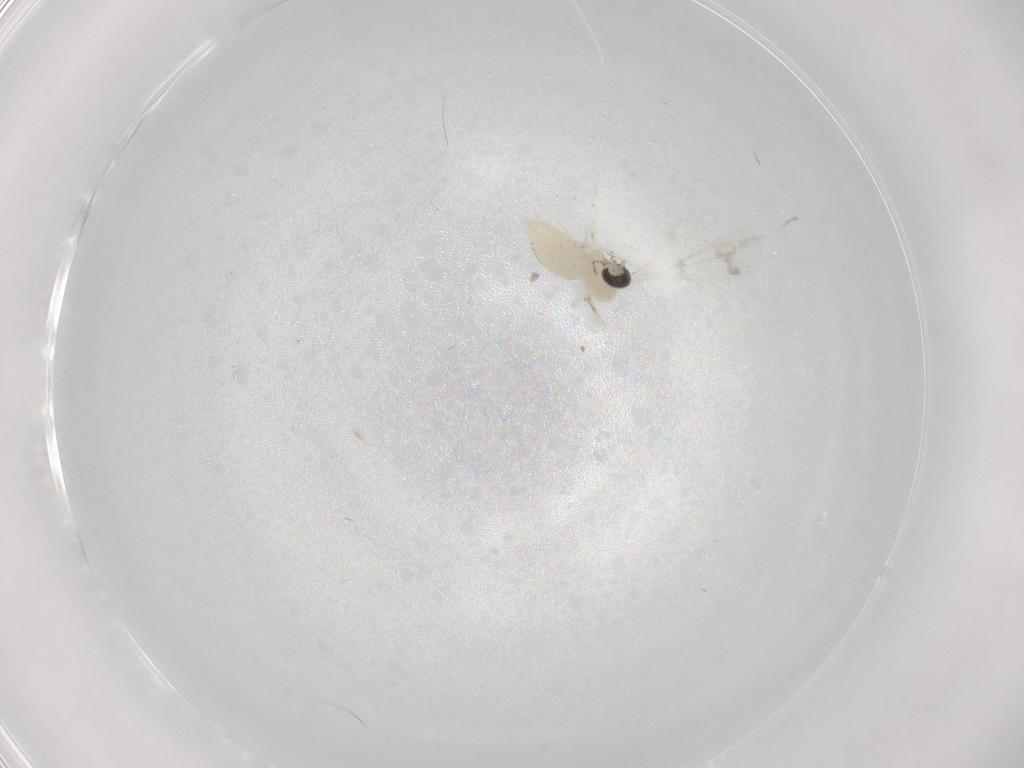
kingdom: Animalia
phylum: Arthropoda
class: Insecta
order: Diptera
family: Cecidomyiidae
